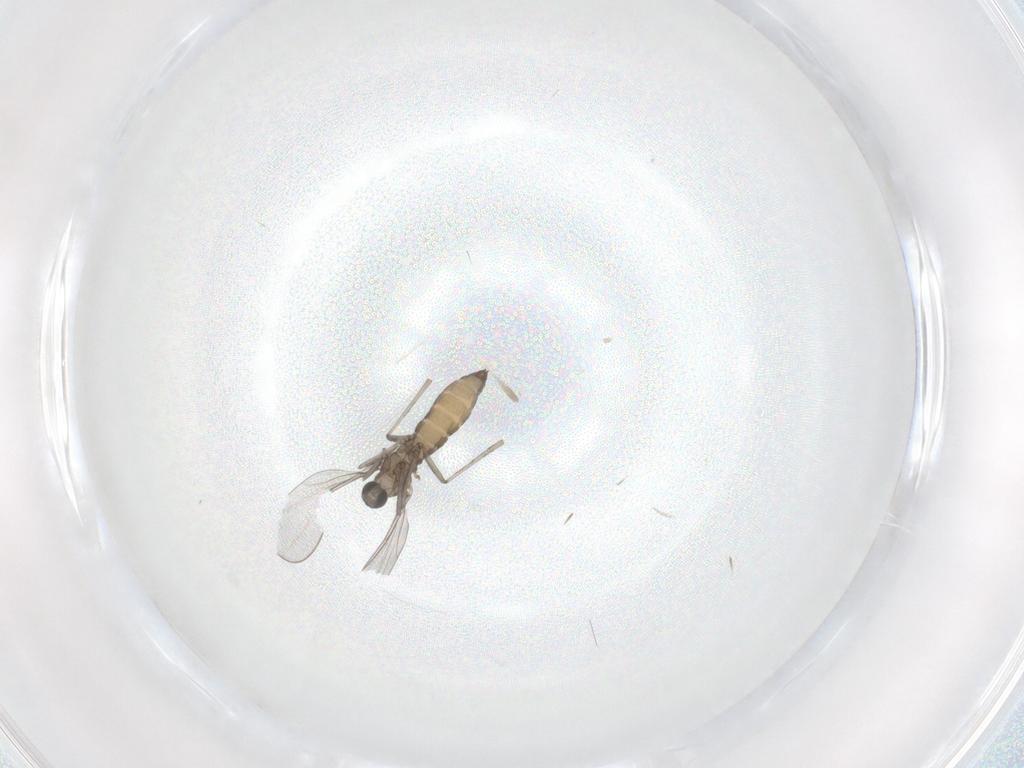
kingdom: Animalia
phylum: Arthropoda
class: Insecta
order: Diptera
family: Cecidomyiidae
